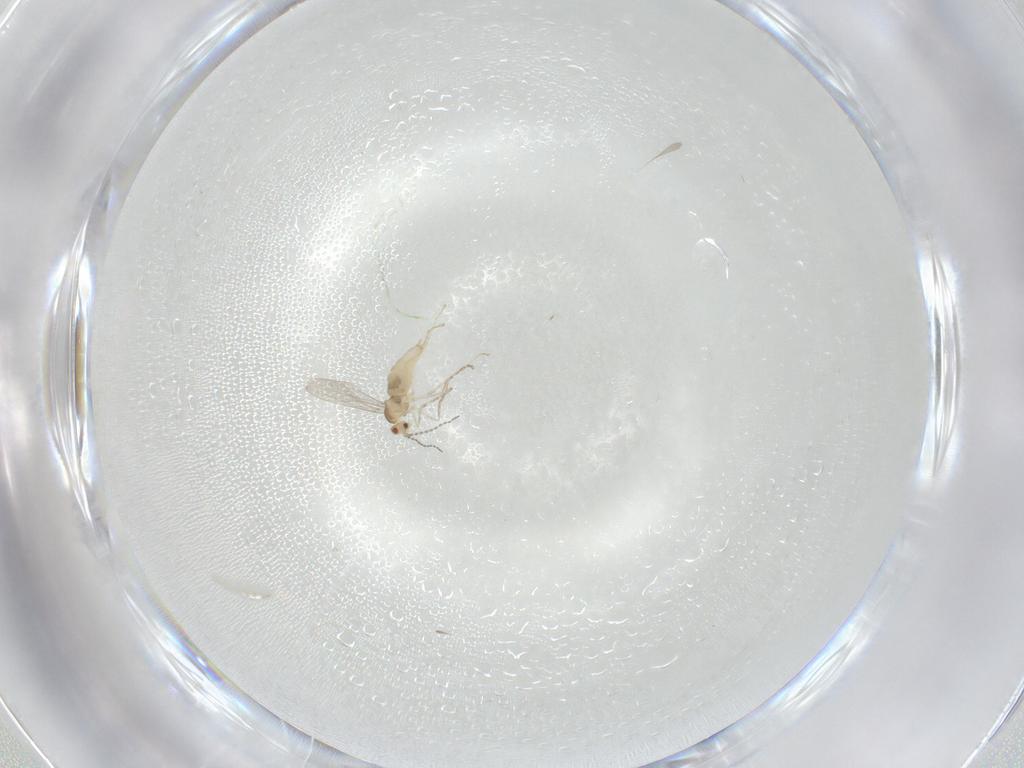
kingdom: Animalia
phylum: Arthropoda
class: Insecta
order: Diptera
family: Cecidomyiidae
